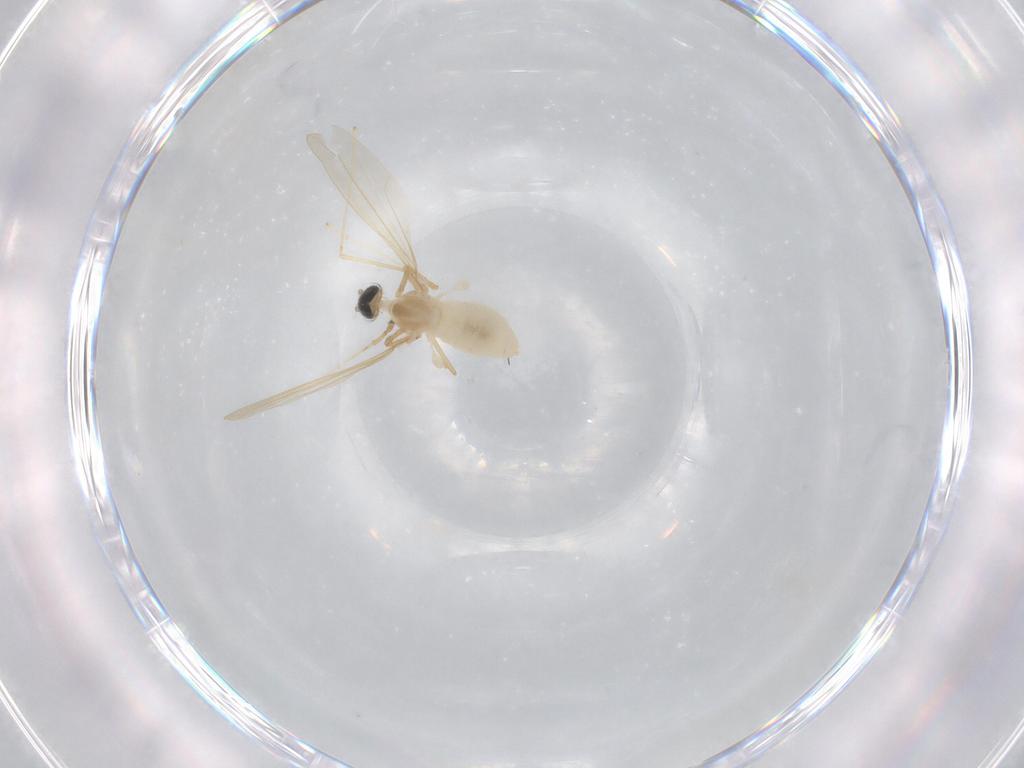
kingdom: Animalia
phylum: Arthropoda
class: Insecta
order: Diptera
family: Cecidomyiidae
